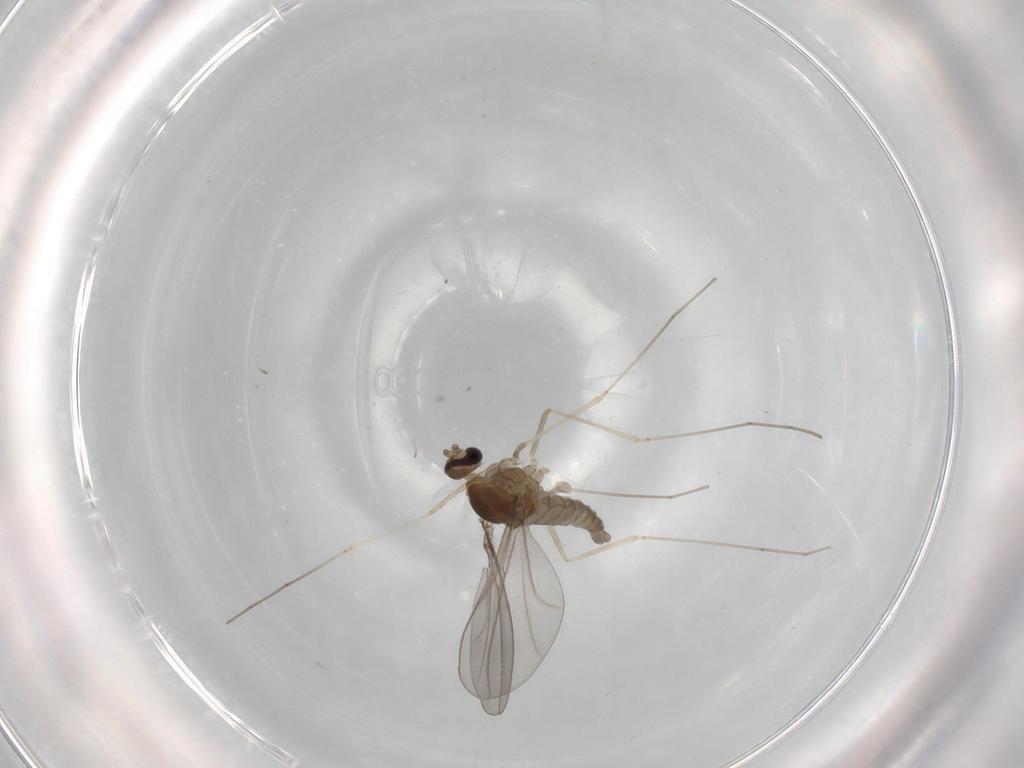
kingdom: Animalia
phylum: Arthropoda
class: Insecta
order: Diptera
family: Cecidomyiidae
